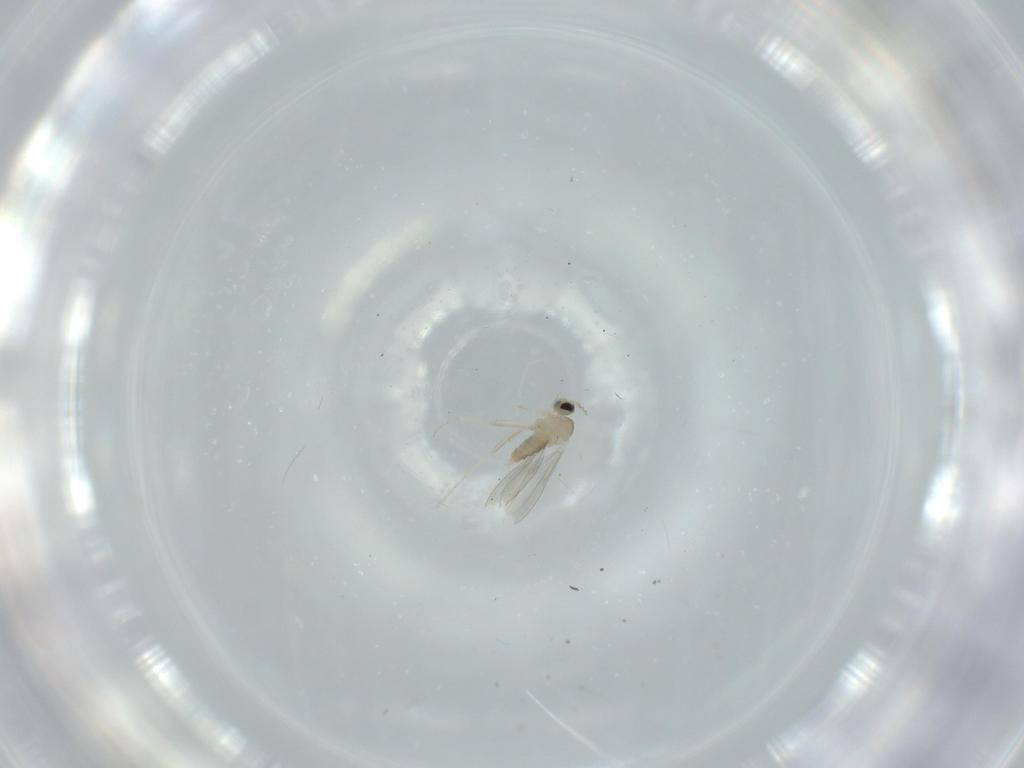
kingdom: Animalia
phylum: Arthropoda
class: Insecta
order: Diptera
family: Cecidomyiidae
